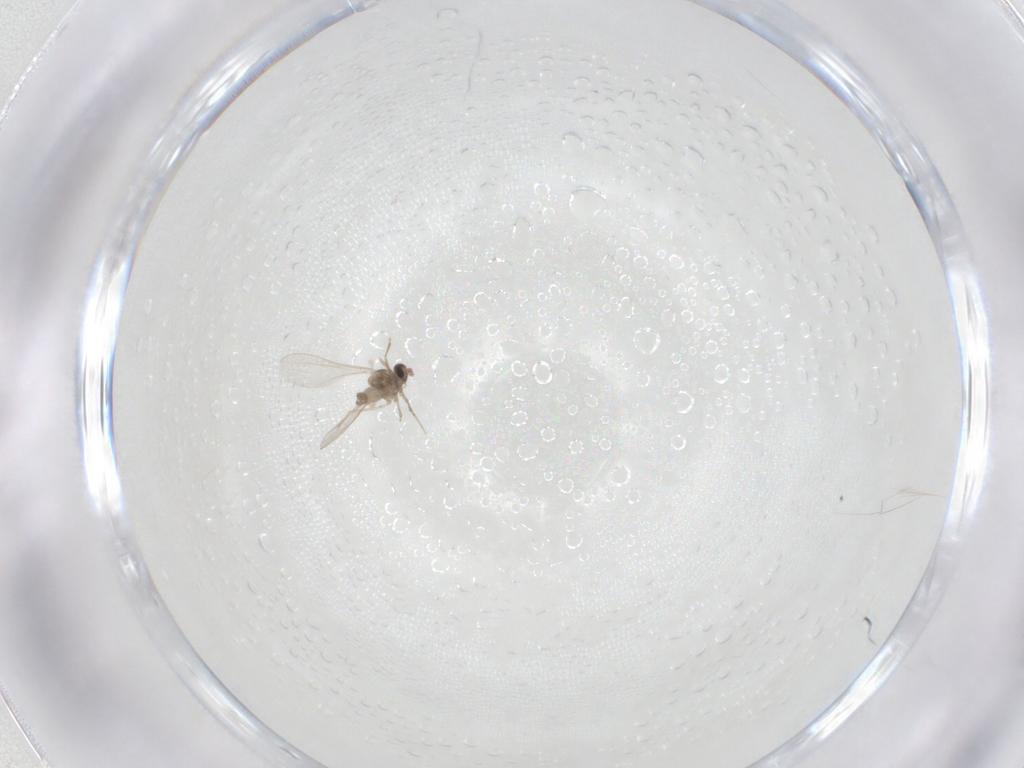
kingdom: Animalia
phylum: Arthropoda
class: Insecta
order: Diptera
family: Cecidomyiidae
